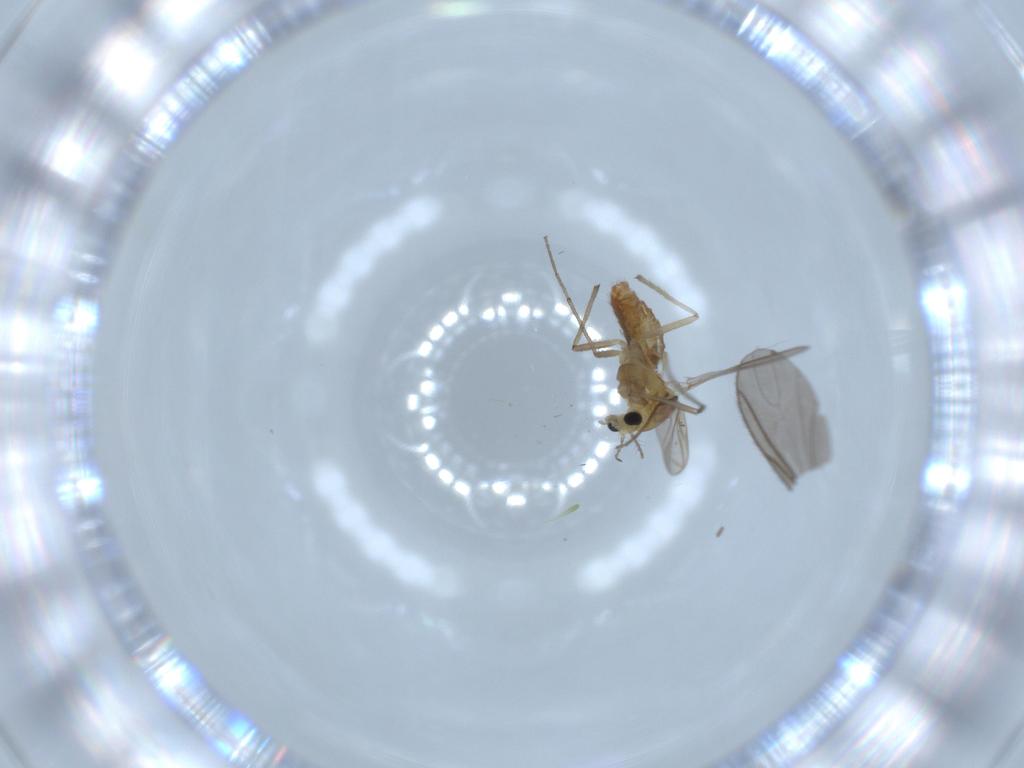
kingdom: Animalia
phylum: Arthropoda
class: Insecta
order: Diptera
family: Chironomidae
